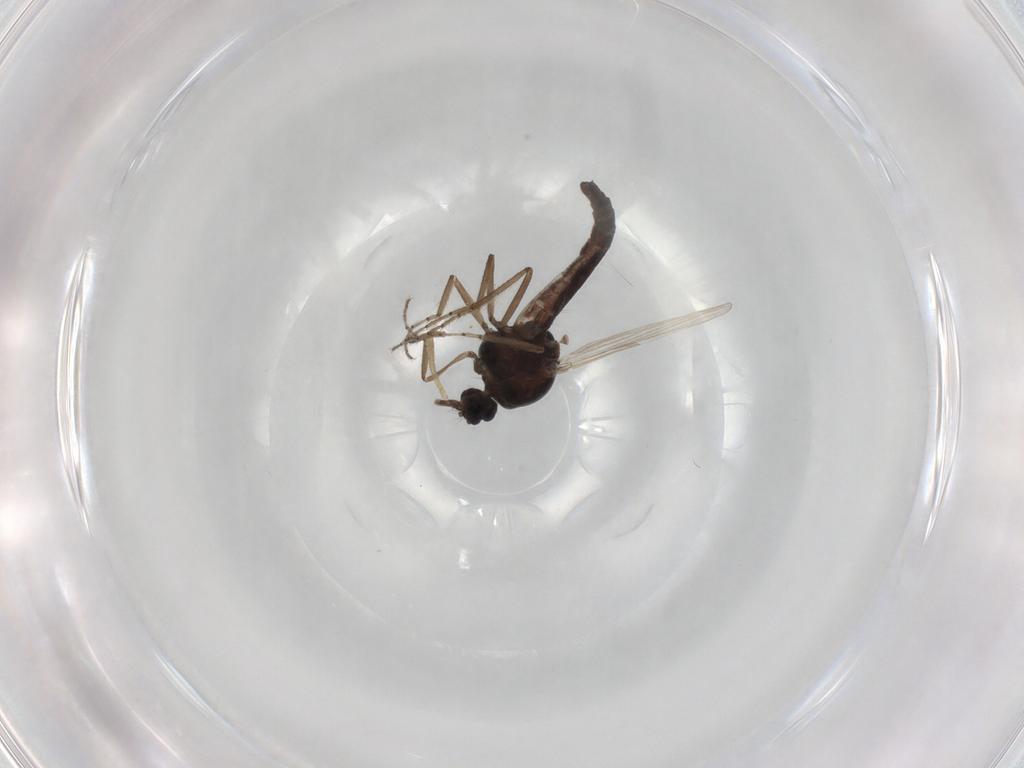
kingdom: Animalia
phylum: Arthropoda
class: Insecta
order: Diptera
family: Ceratopogonidae
